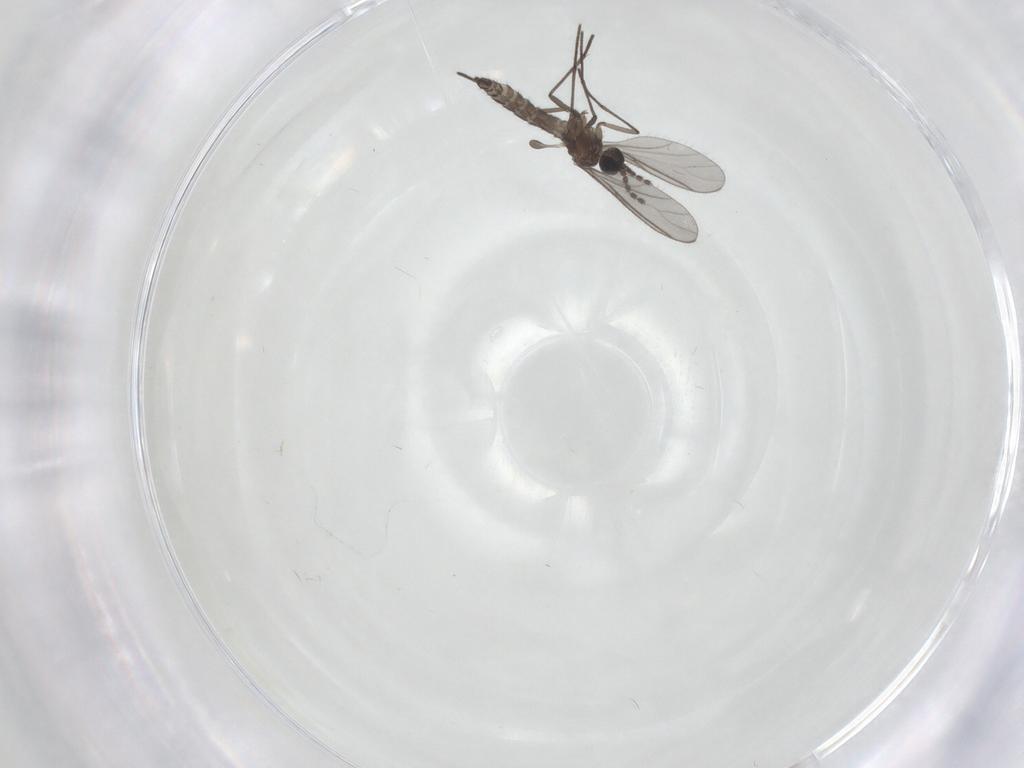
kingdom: Animalia
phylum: Arthropoda
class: Insecta
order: Diptera
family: Sciaridae
